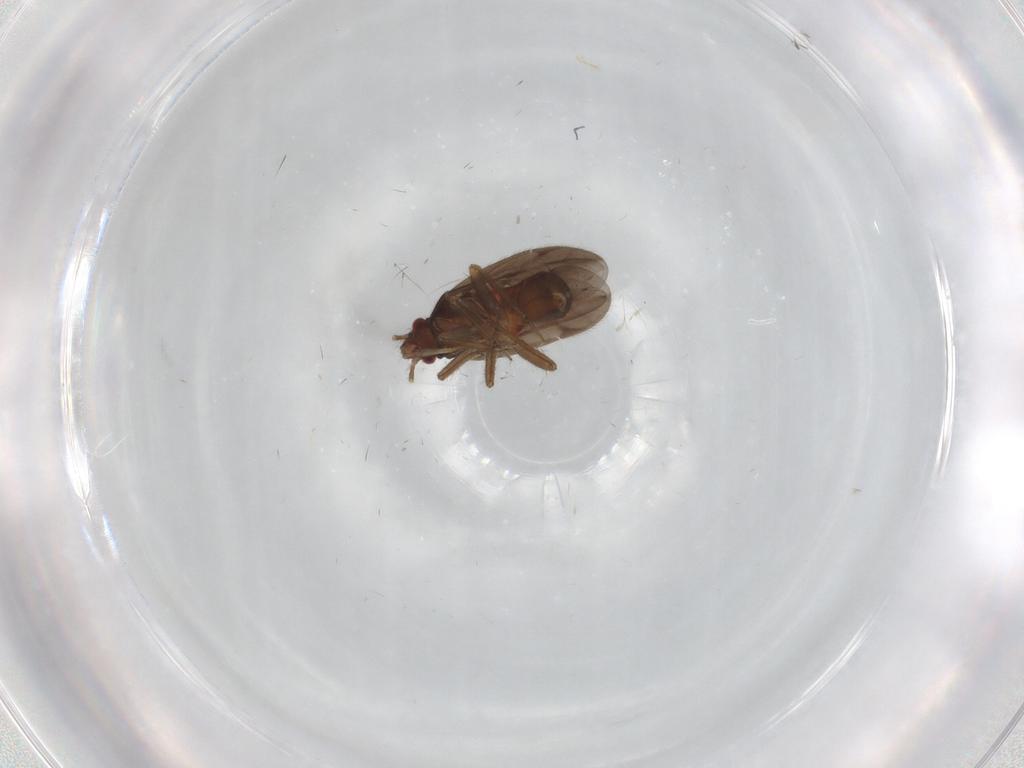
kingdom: Animalia
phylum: Arthropoda
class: Insecta
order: Hemiptera
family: Ceratocombidae
